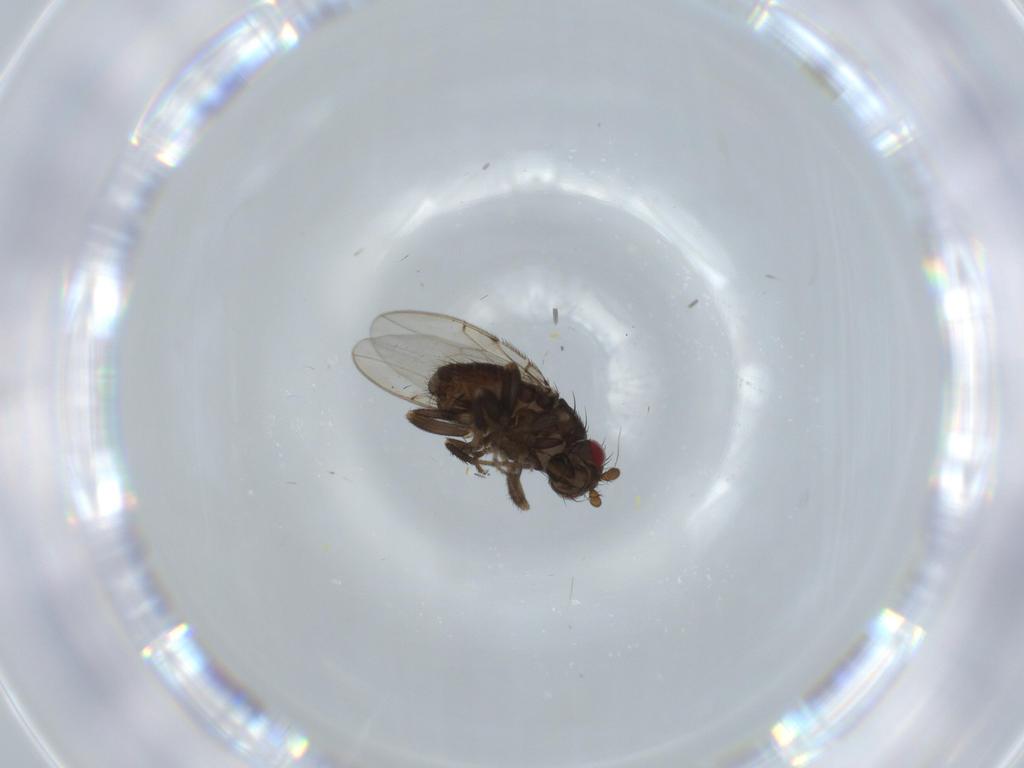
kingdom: Animalia
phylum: Arthropoda
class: Insecta
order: Diptera
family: Sphaeroceridae
